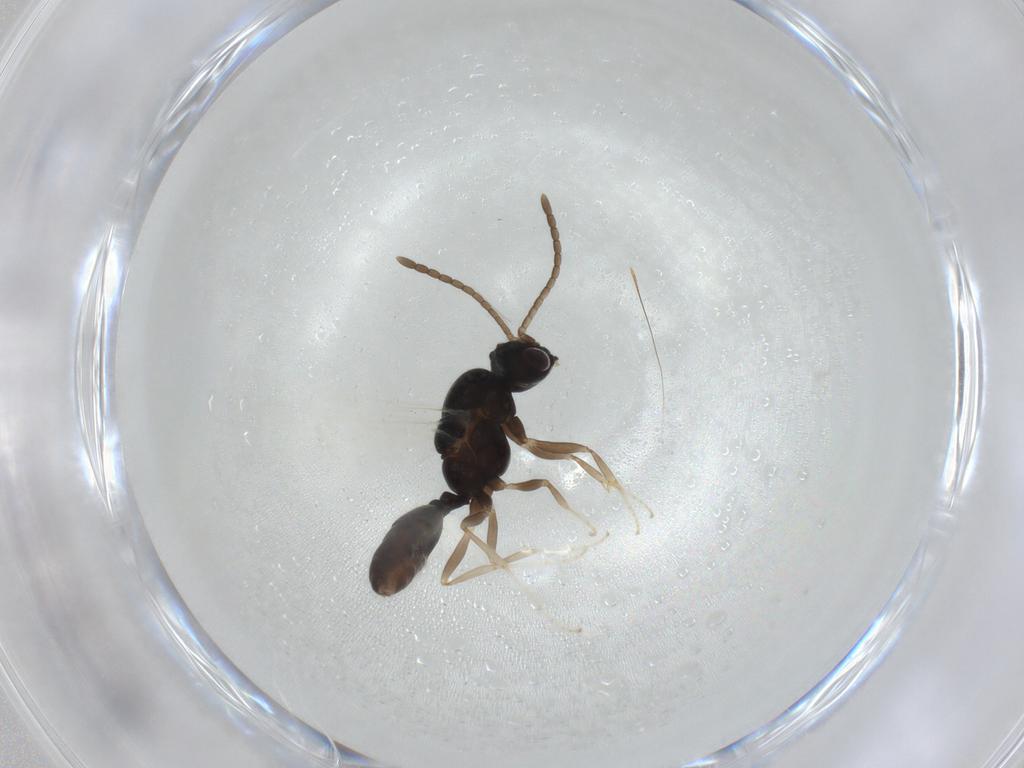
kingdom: Animalia
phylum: Arthropoda
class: Insecta
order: Hymenoptera
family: Formicidae
